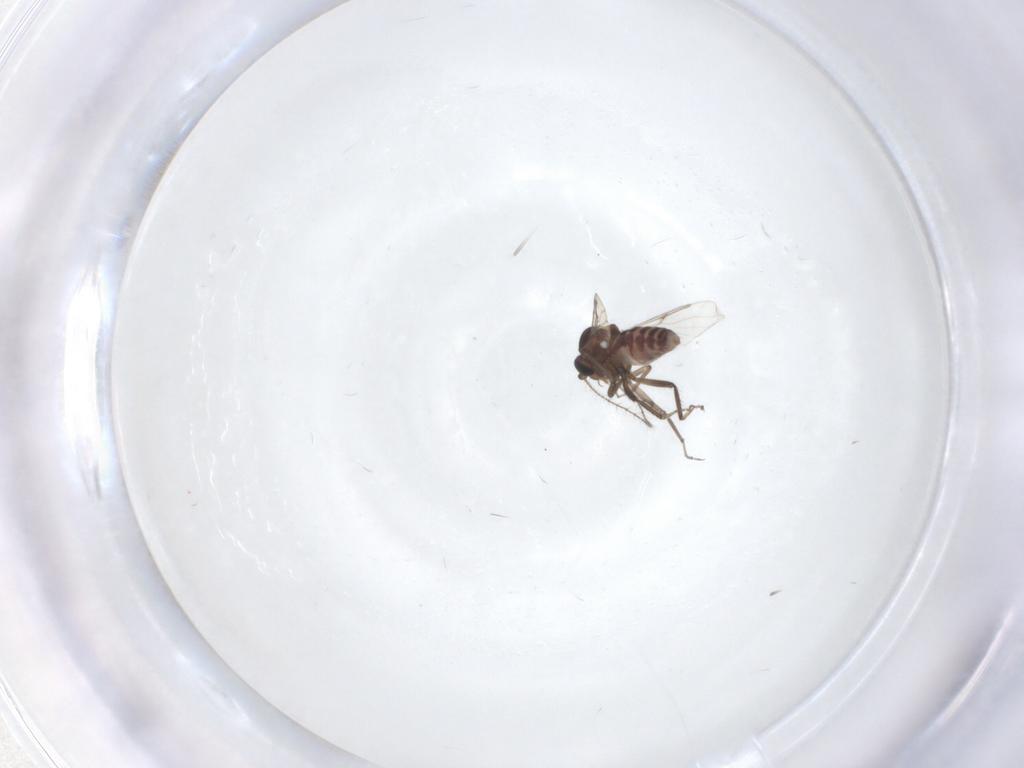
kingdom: Animalia
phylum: Arthropoda
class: Insecta
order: Diptera
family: Ceratopogonidae
